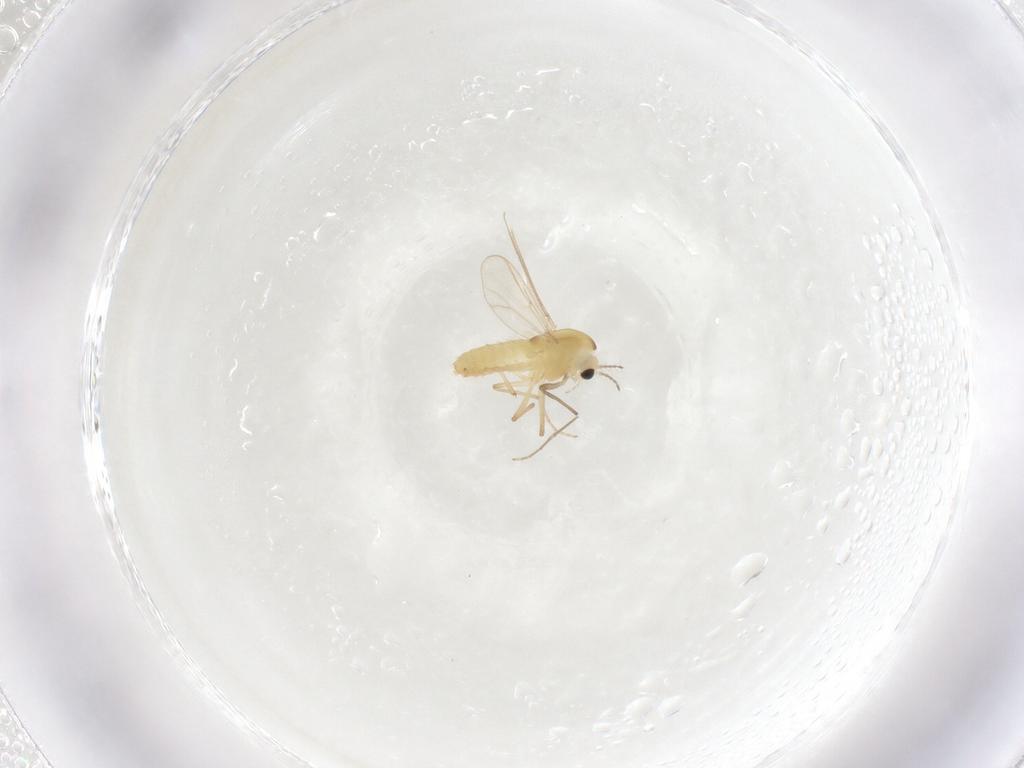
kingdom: Animalia
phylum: Arthropoda
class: Insecta
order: Diptera
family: Chironomidae
